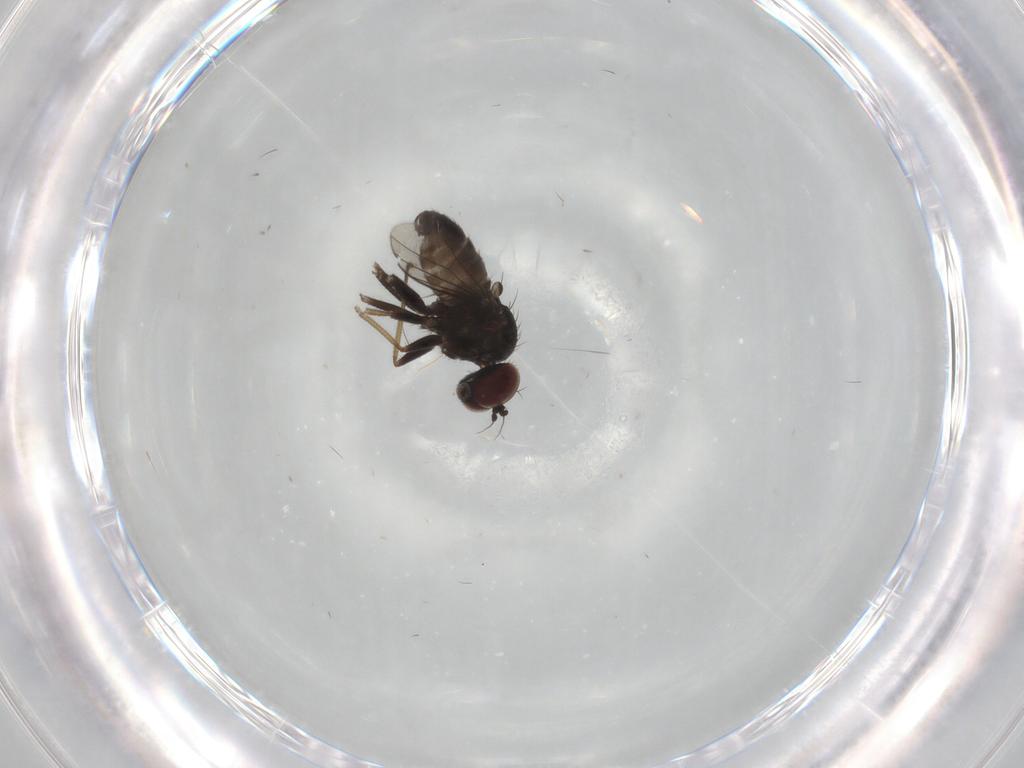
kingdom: Animalia
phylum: Arthropoda
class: Insecta
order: Diptera
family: Dolichopodidae
